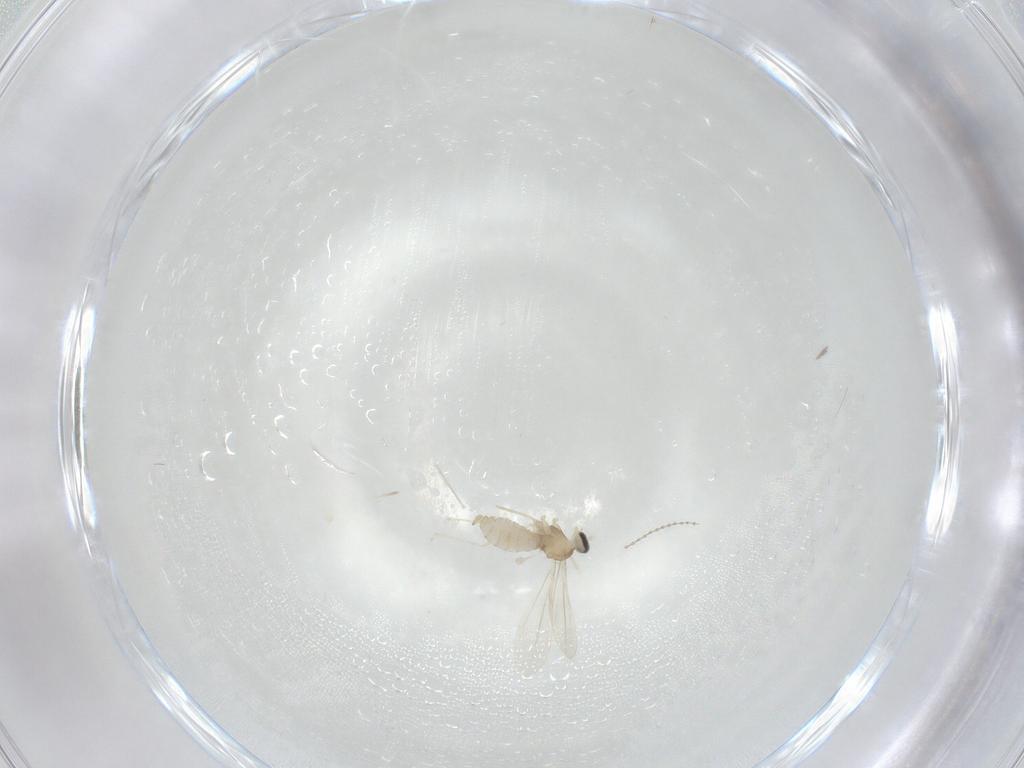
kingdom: Animalia
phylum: Arthropoda
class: Insecta
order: Diptera
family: Cecidomyiidae
